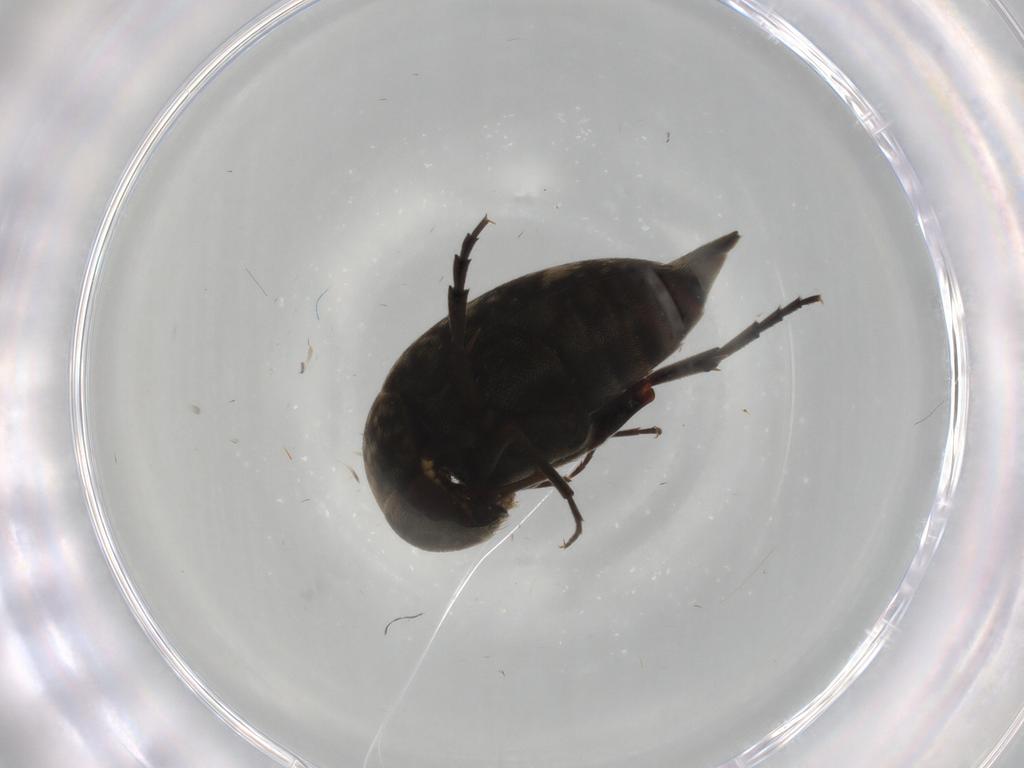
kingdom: Animalia
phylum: Arthropoda
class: Insecta
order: Coleoptera
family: Mordellidae
